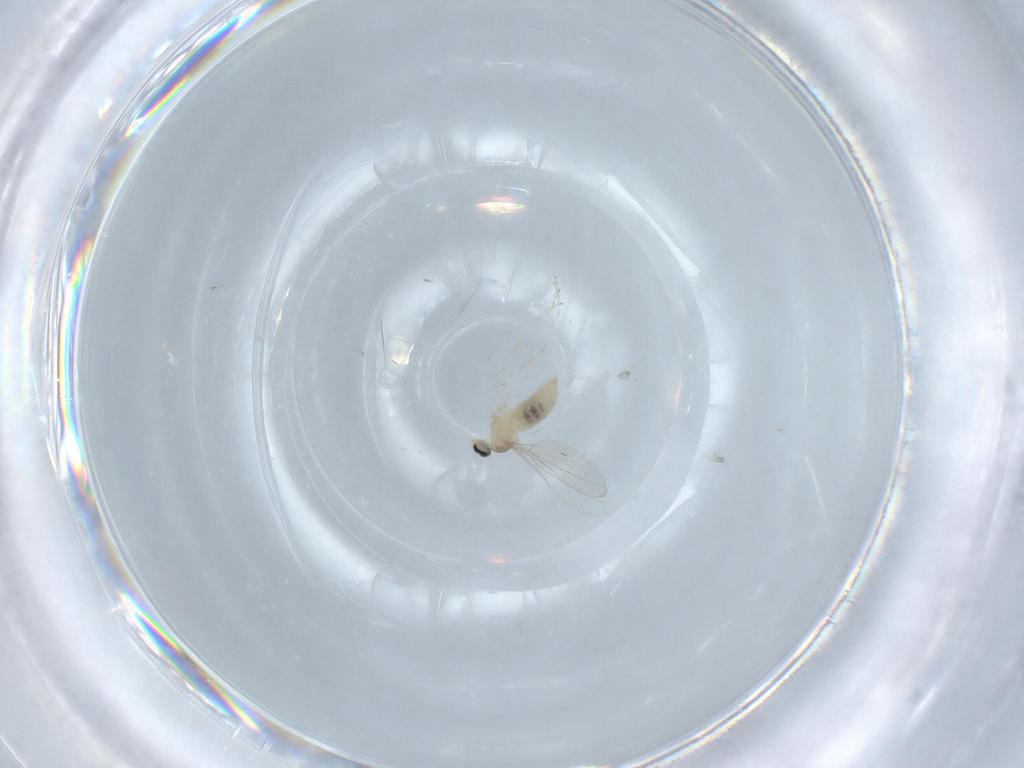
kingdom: Animalia
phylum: Arthropoda
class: Insecta
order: Diptera
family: Cecidomyiidae
